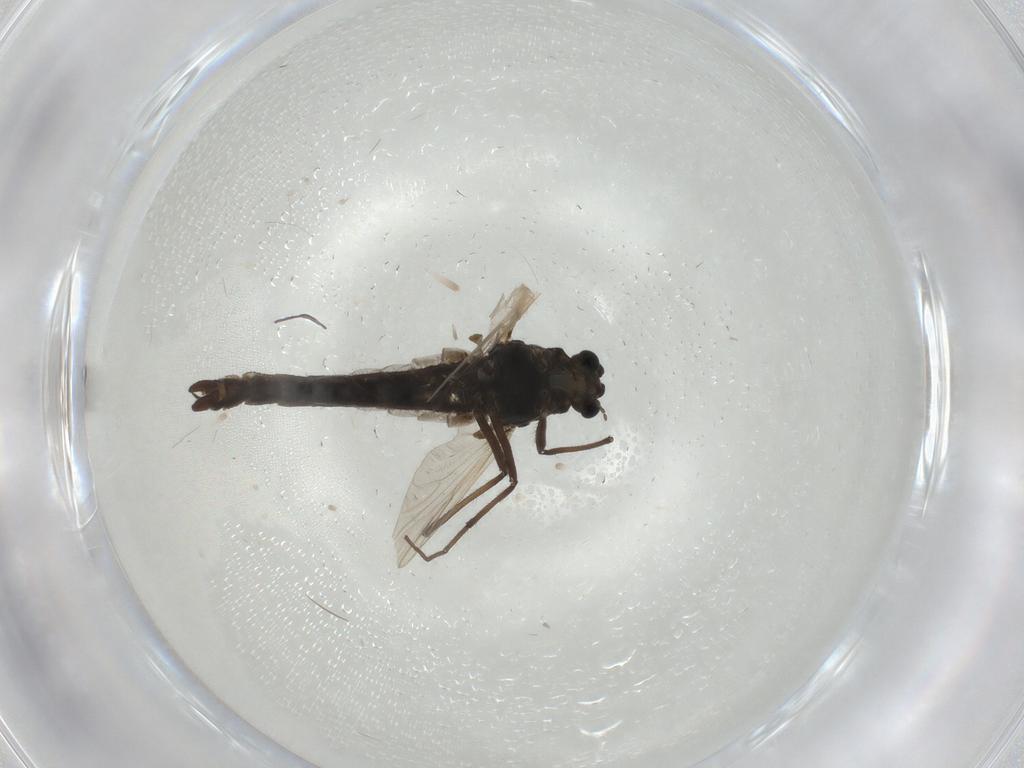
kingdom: Animalia
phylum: Arthropoda
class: Insecta
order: Diptera
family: Chironomidae
